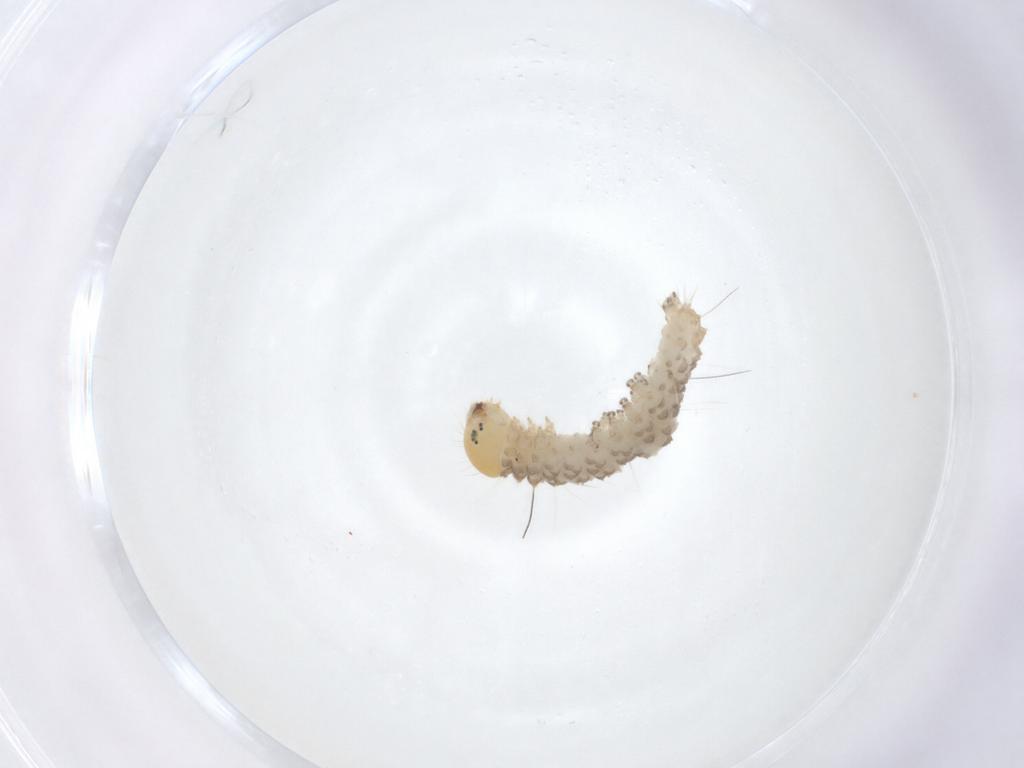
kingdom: Animalia
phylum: Arthropoda
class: Insecta
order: Lepidoptera
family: Erebidae
